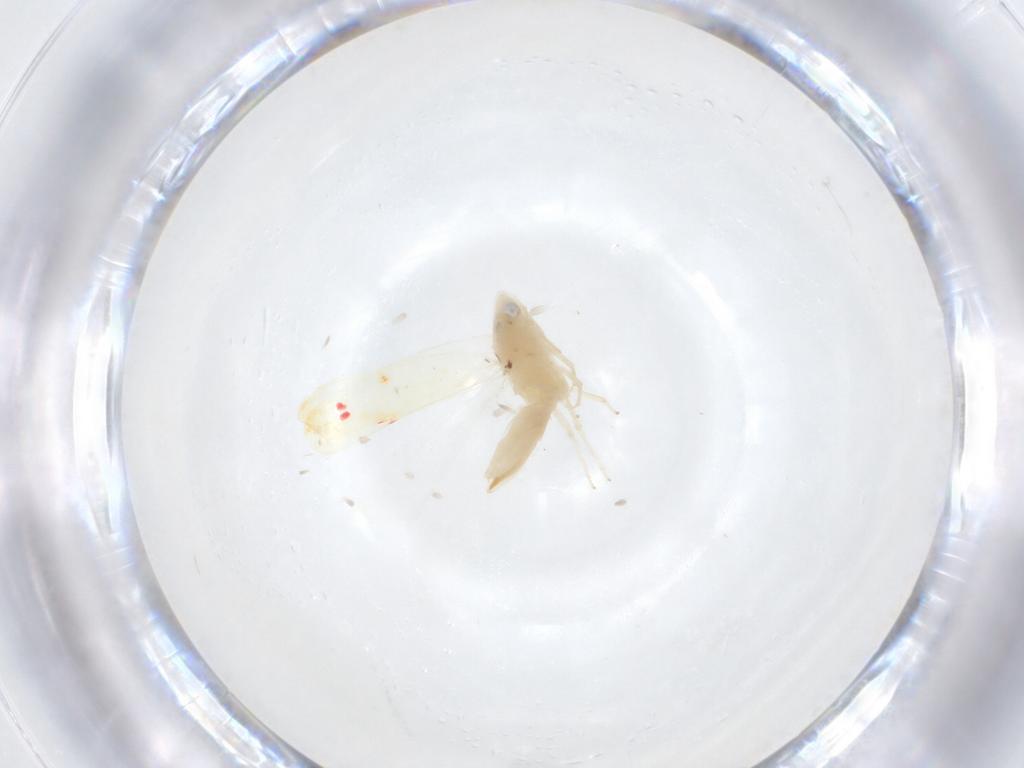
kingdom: Animalia
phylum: Arthropoda
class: Insecta
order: Hemiptera
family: Cicadellidae
